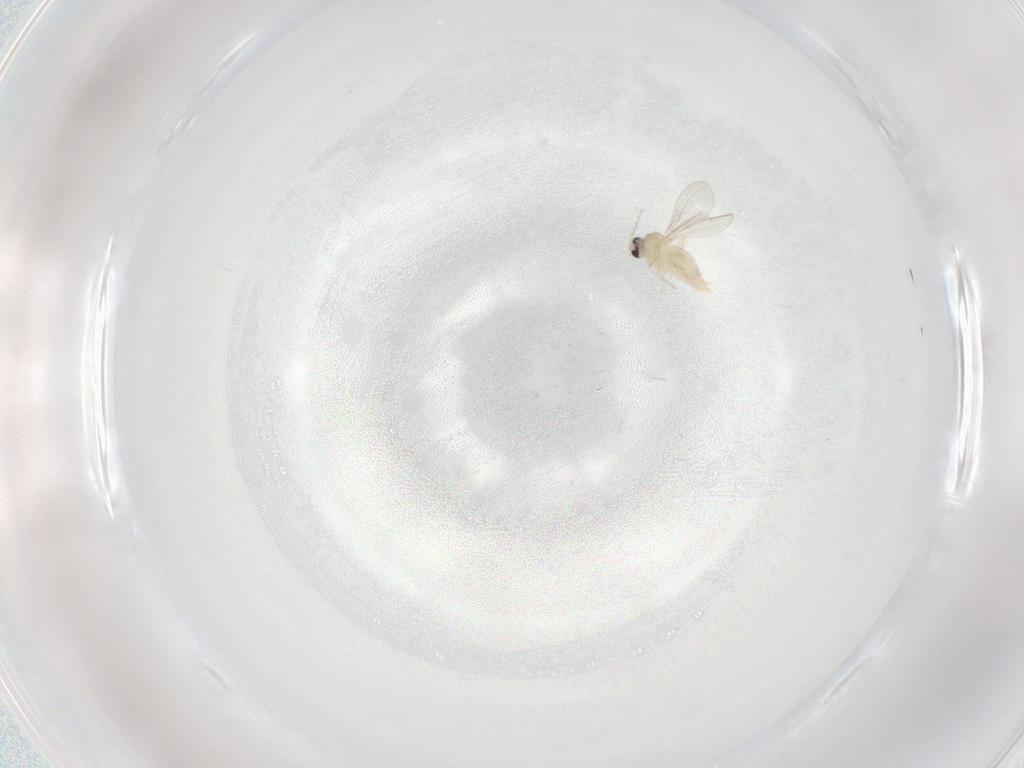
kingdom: Animalia
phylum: Arthropoda
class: Insecta
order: Diptera
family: Cecidomyiidae
